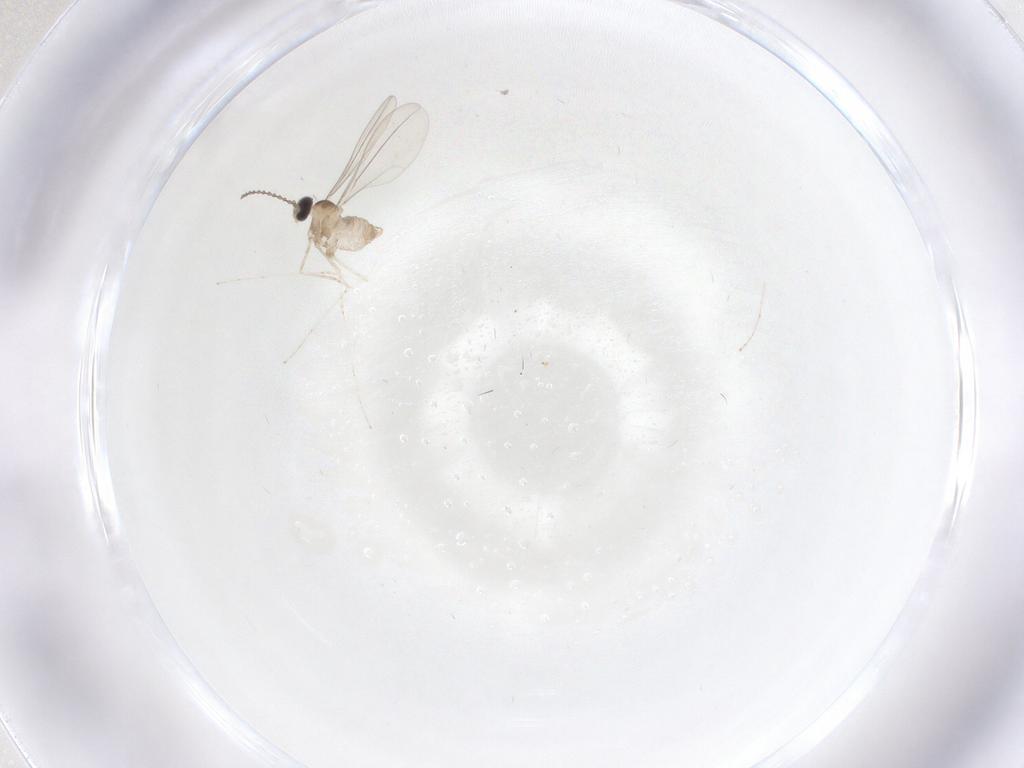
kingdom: Animalia
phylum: Arthropoda
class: Insecta
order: Diptera
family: Cecidomyiidae
